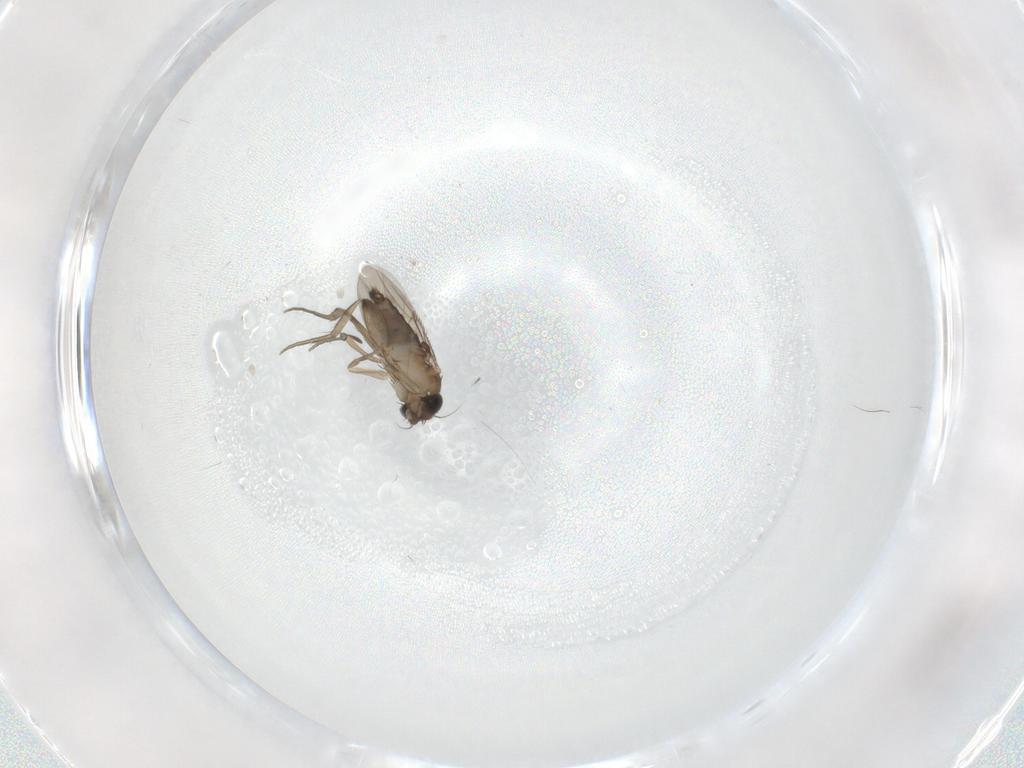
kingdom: Animalia
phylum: Arthropoda
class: Insecta
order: Diptera
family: Phoridae
